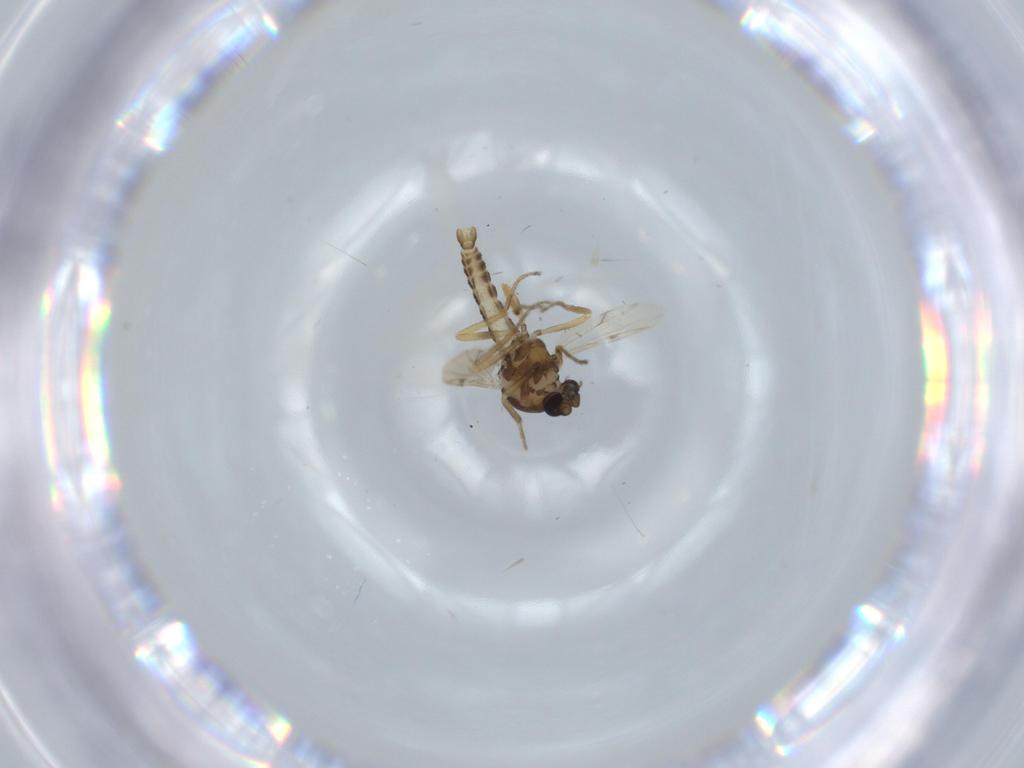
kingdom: Animalia
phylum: Arthropoda
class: Insecta
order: Diptera
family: Ceratopogonidae
